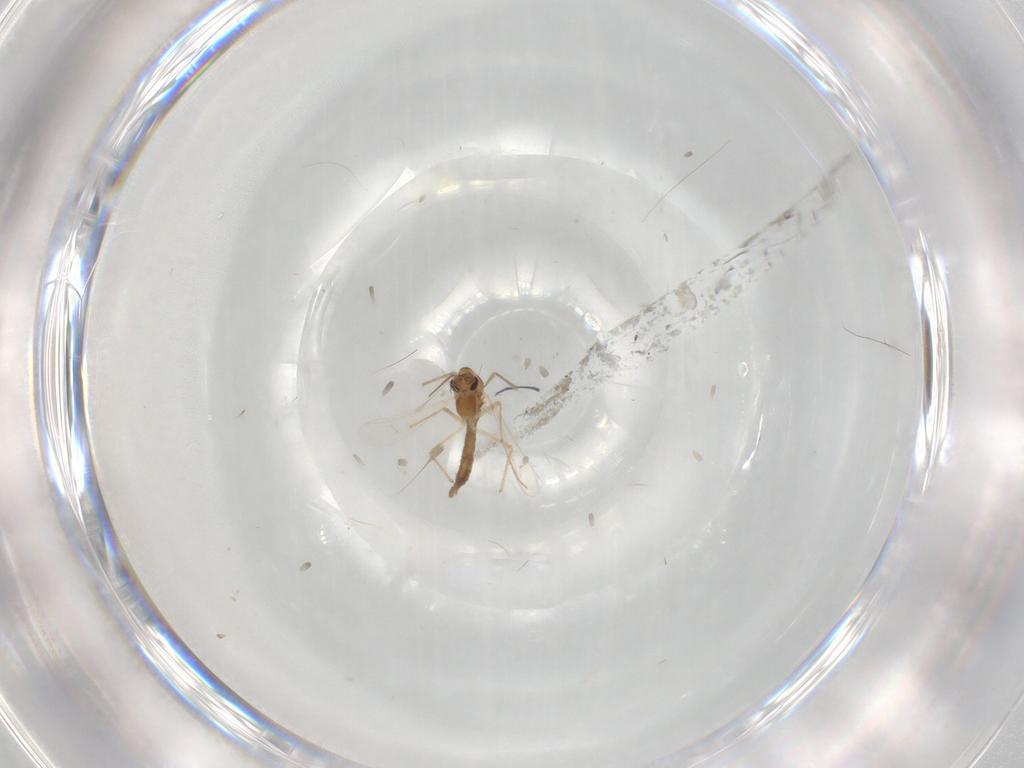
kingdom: Animalia
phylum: Arthropoda
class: Insecta
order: Diptera
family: Chironomidae
